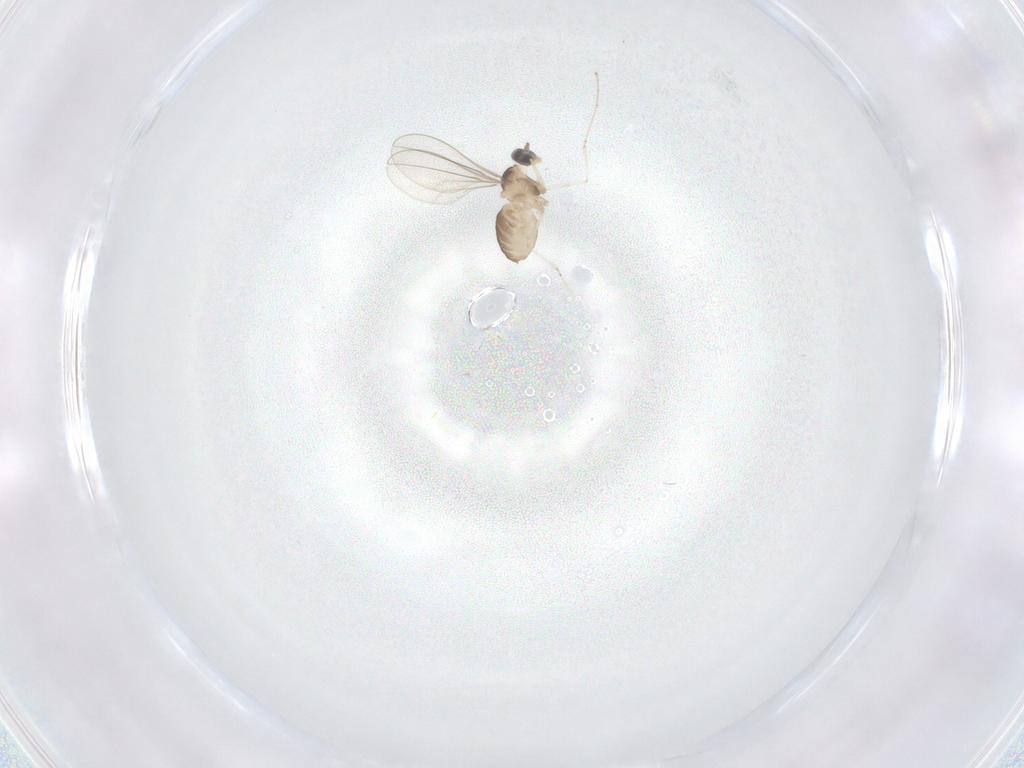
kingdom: Animalia
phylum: Arthropoda
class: Insecta
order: Diptera
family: Cecidomyiidae
